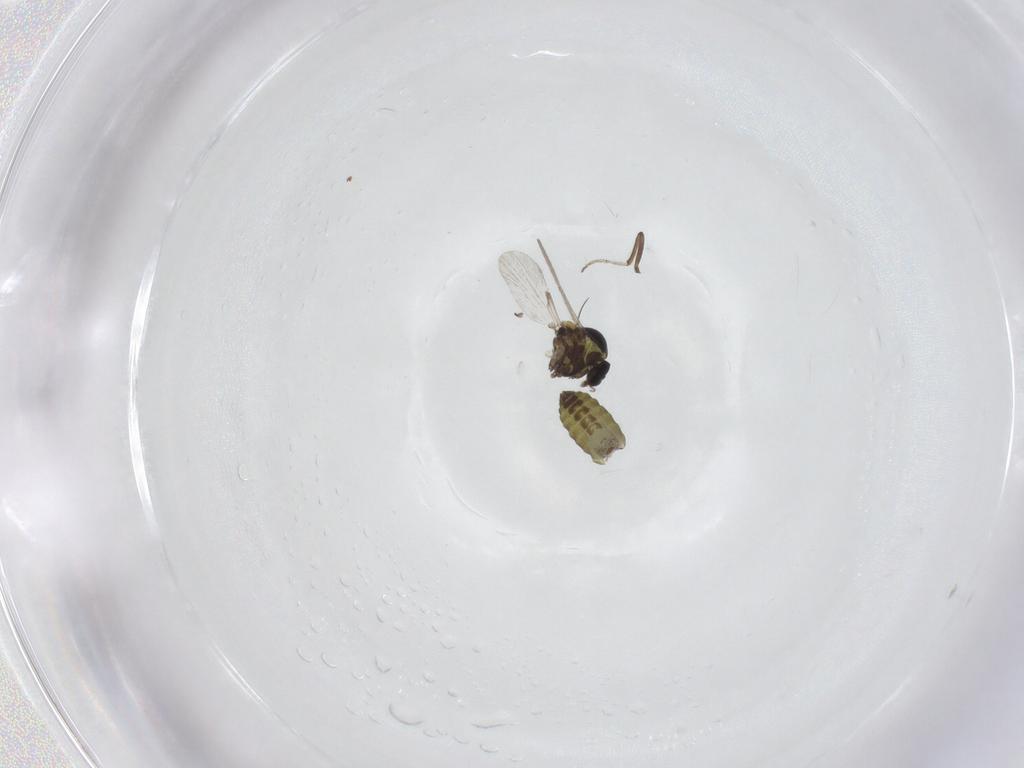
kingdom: Animalia
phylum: Arthropoda
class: Insecta
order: Diptera
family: Ceratopogonidae
